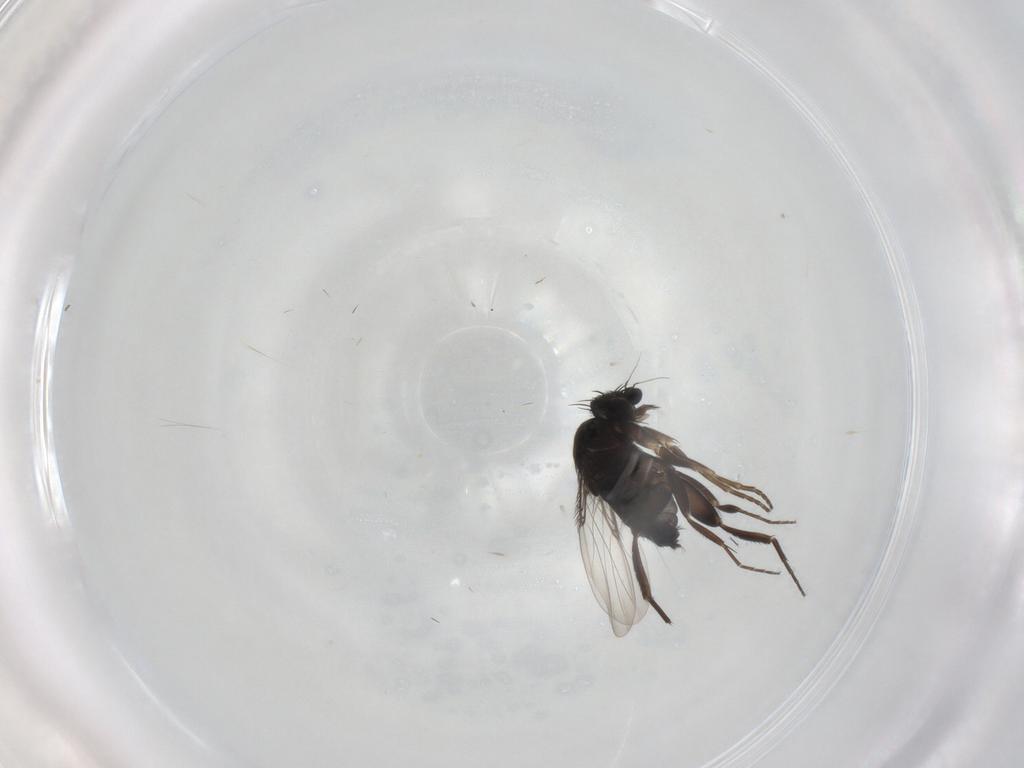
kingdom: Animalia
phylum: Arthropoda
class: Insecta
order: Diptera
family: Phoridae
